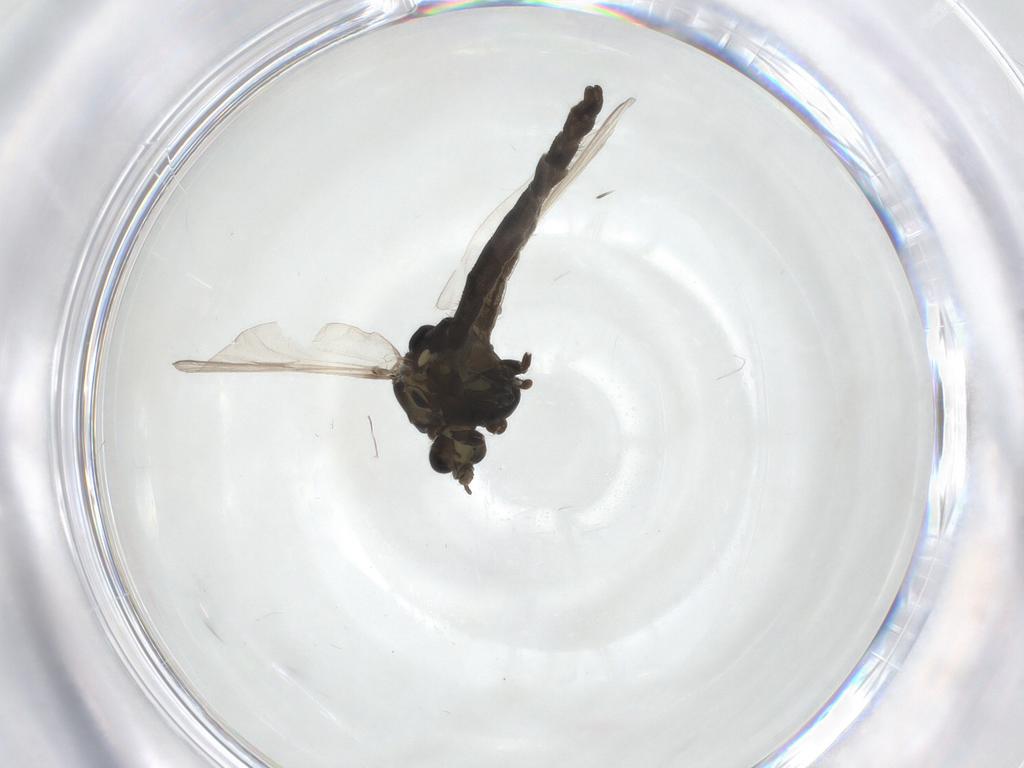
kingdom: Animalia
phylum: Arthropoda
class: Insecta
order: Diptera
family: Chironomidae
